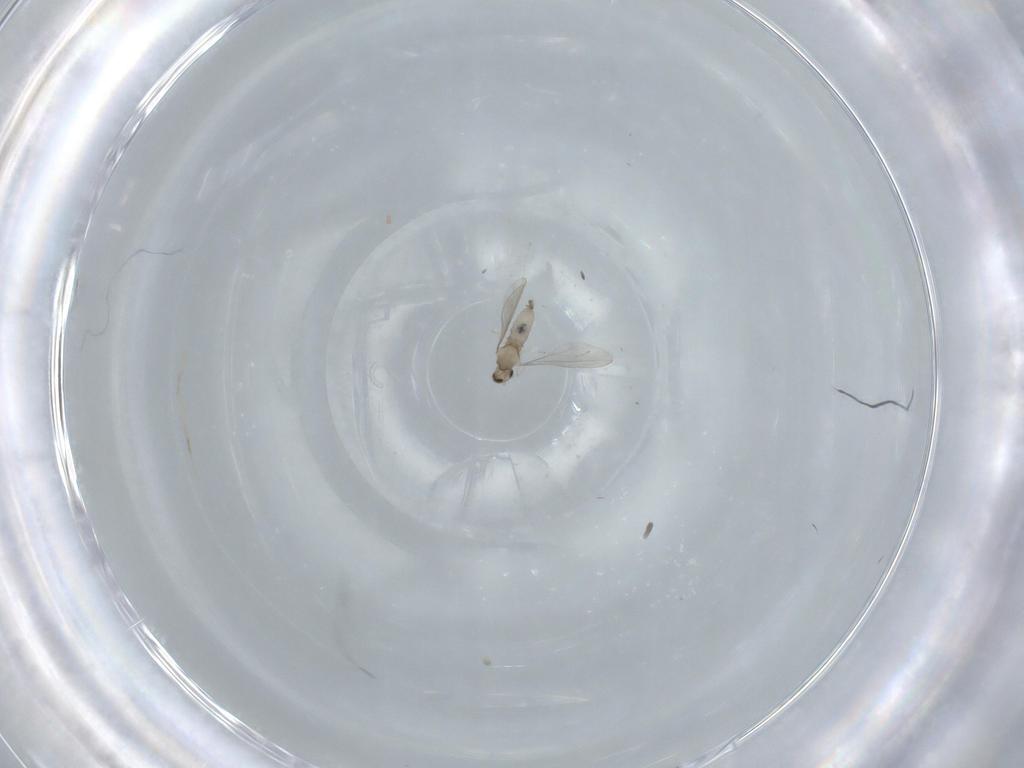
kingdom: Animalia
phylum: Arthropoda
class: Insecta
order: Diptera
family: Cecidomyiidae
